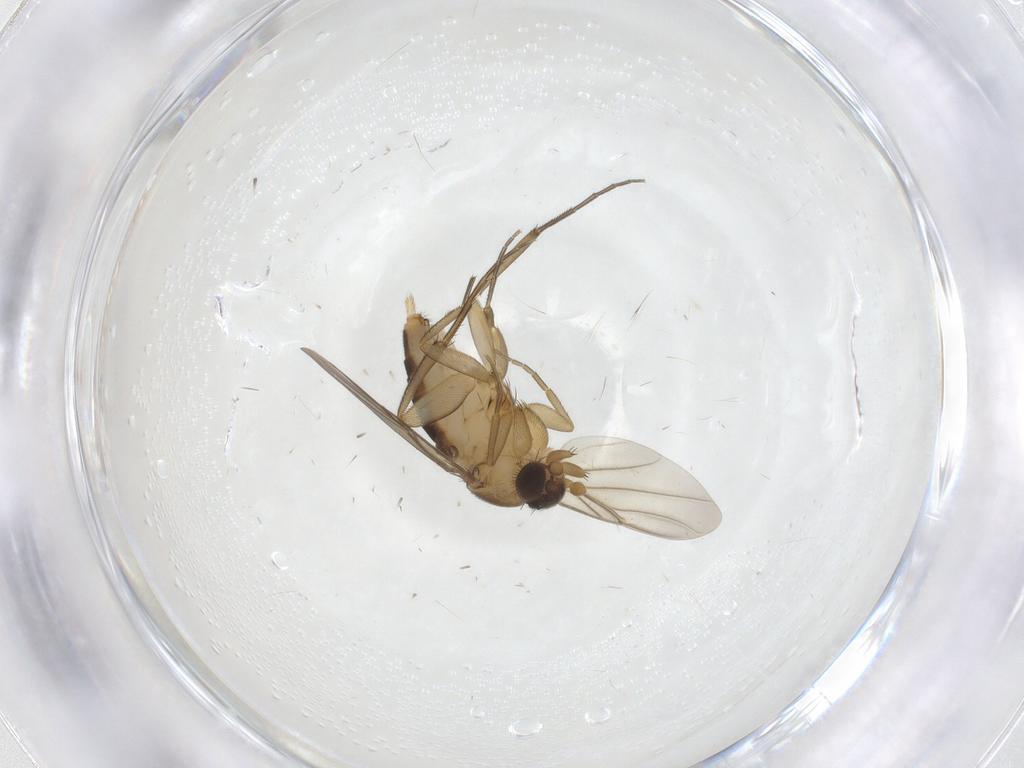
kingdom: Animalia
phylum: Arthropoda
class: Insecta
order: Diptera
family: Phoridae
